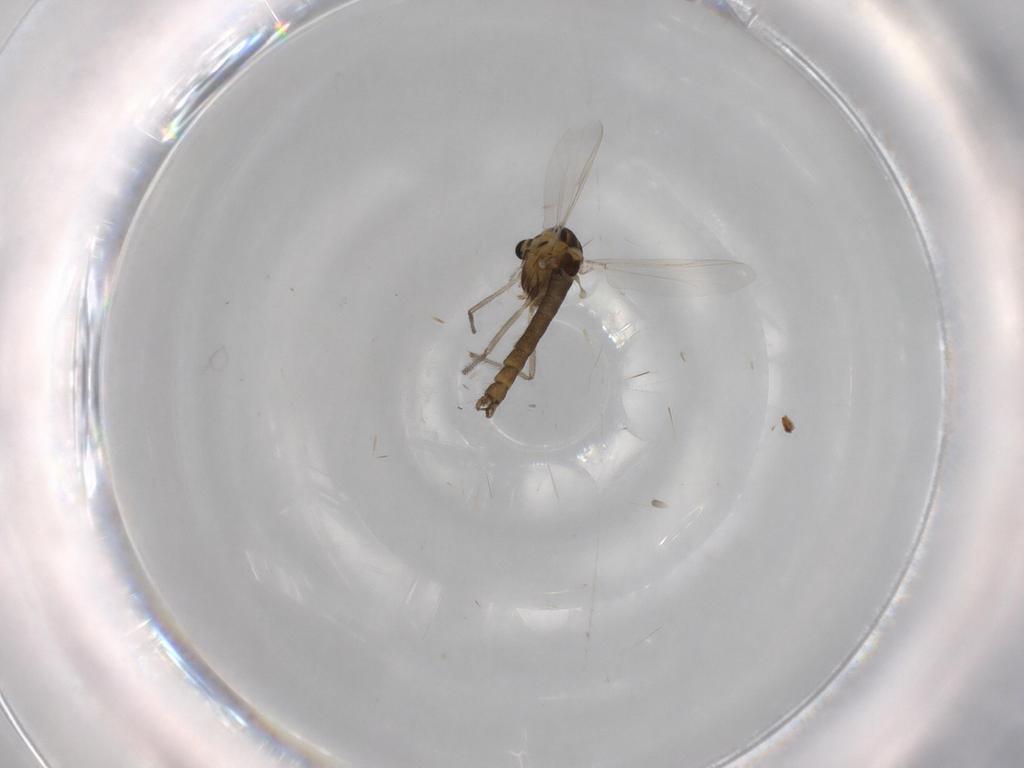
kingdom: Animalia
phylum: Arthropoda
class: Insecta
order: Diptera
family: Chironomidae
